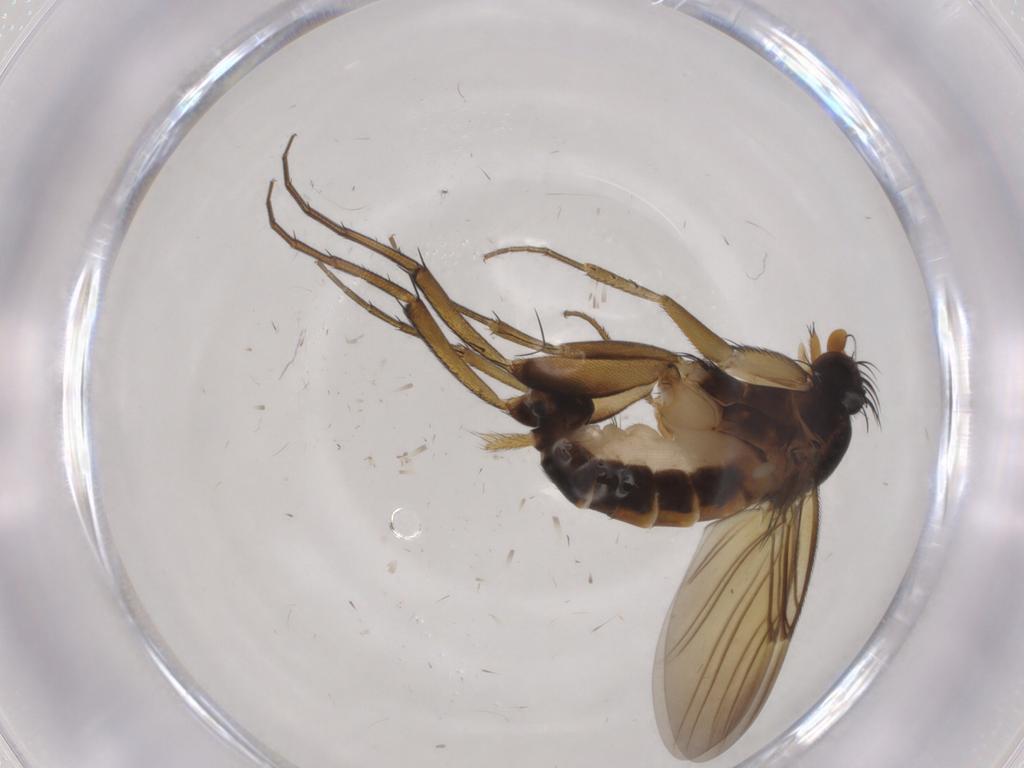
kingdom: Animalia
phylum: Arthropoda
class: Insecta
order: Diptera
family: Phoridae
